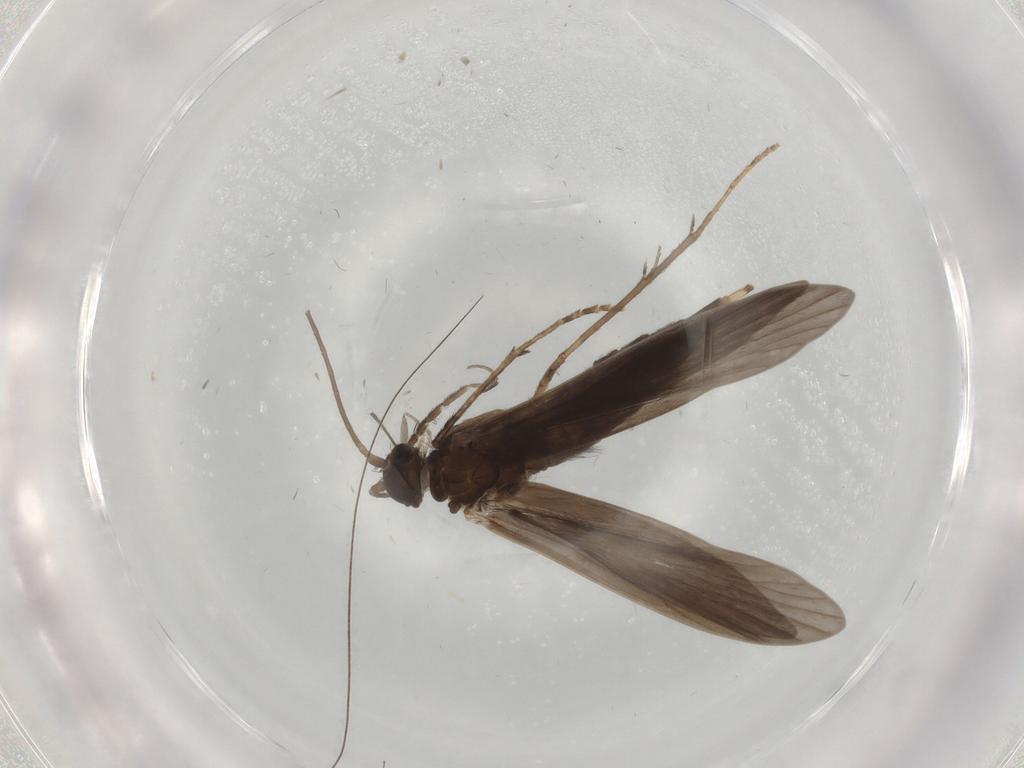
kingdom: Animalia
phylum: Arthropoda
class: Insecta
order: Trichoptera
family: Xiphocentronidae
